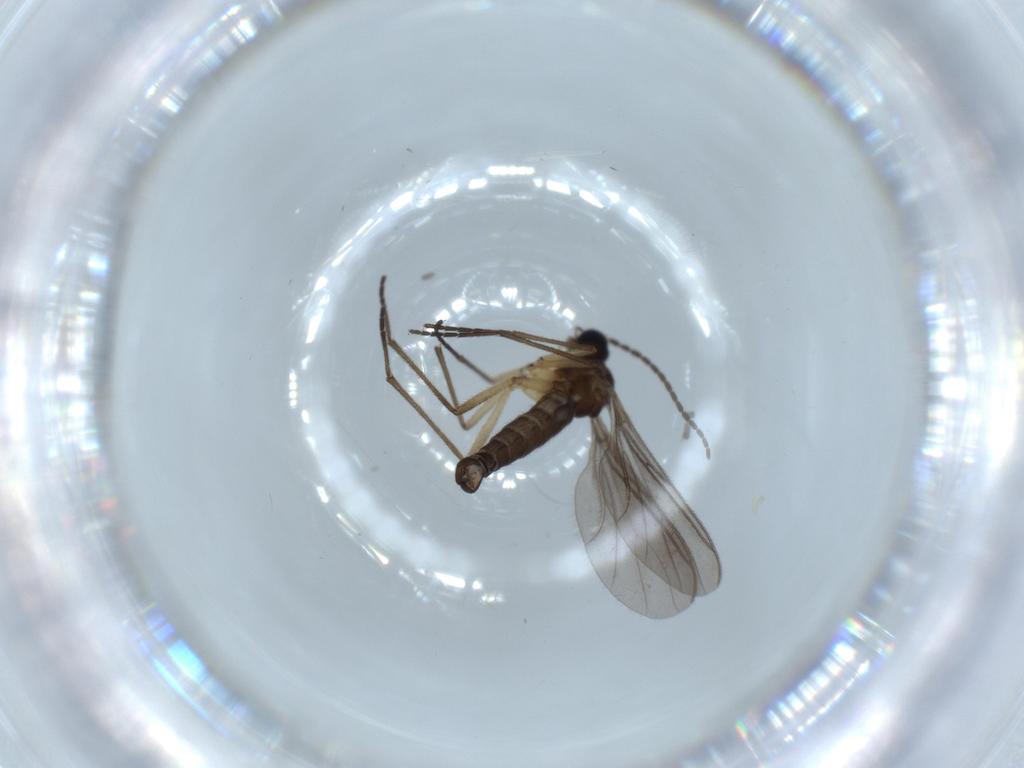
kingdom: Animalia
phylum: Arthropoda
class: Insecta
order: Diptera
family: Sciaridae
